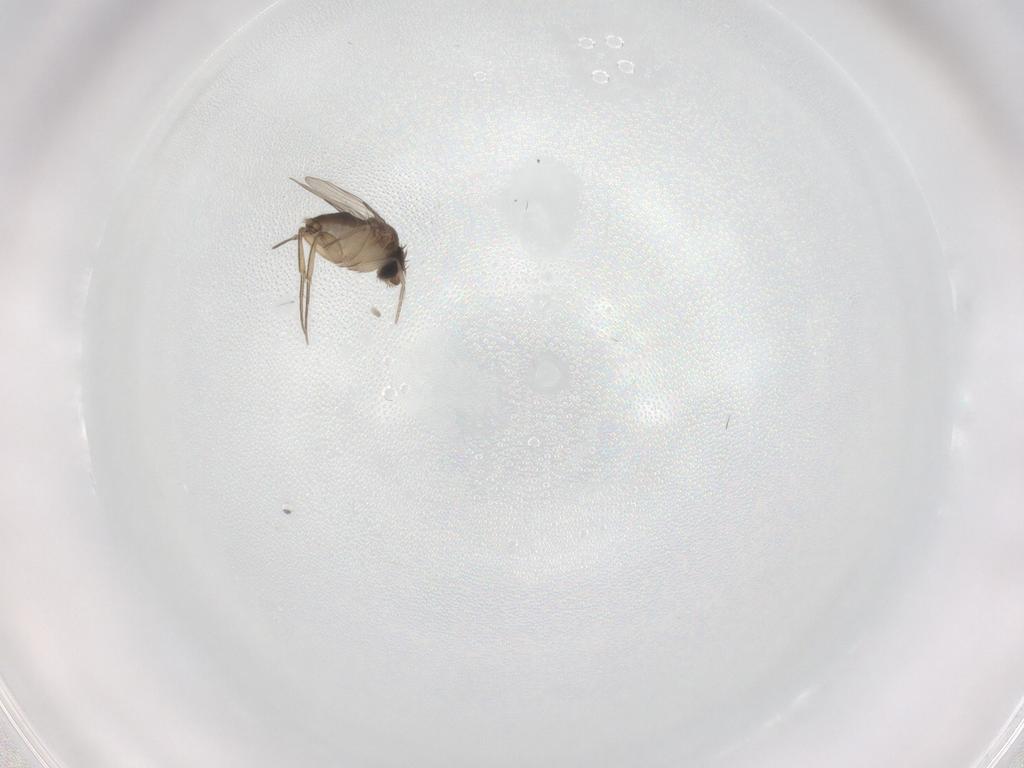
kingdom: Animalia
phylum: Arthropoda
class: Insecta
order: Diptera
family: Phoridae
